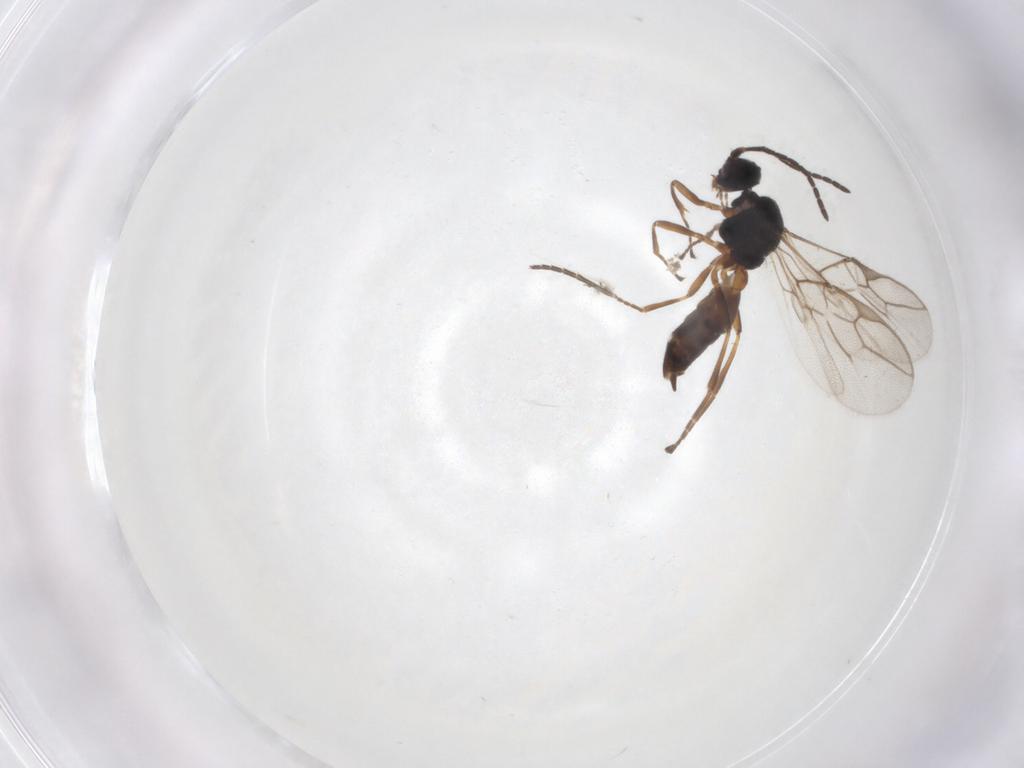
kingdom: Animalia
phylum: Arthropoda
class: Insecta
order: Hymenoptera
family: Braconidae
